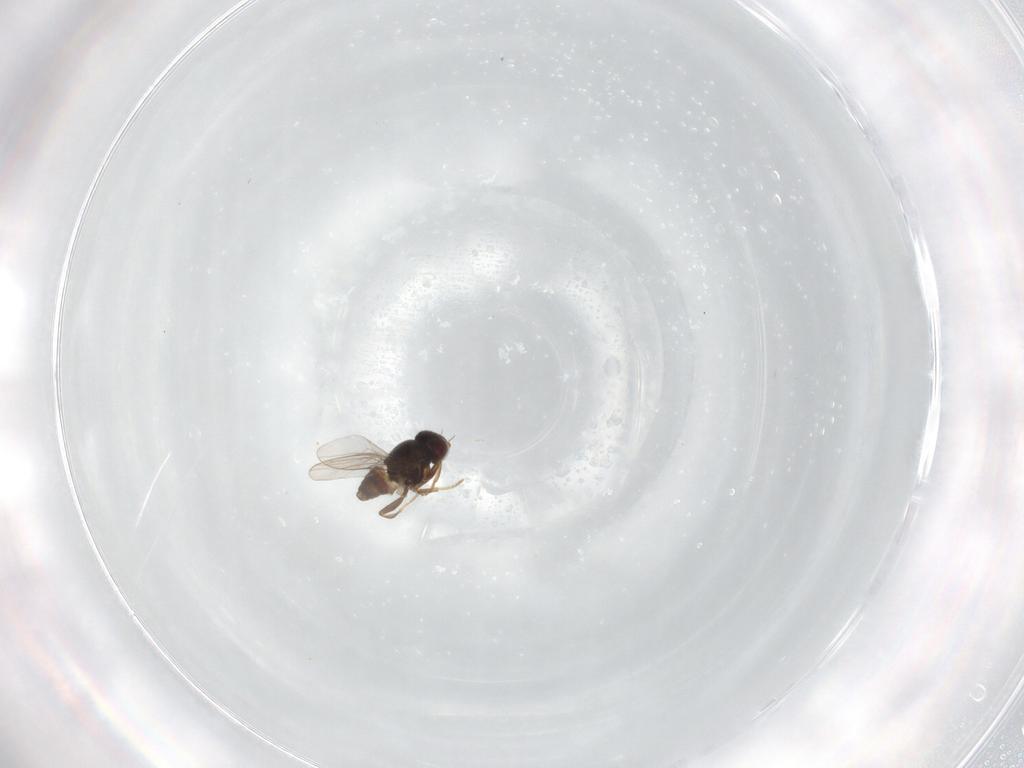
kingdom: Animalia
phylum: Arthropoda
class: Insecta
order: Diptera
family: Chloropidae
